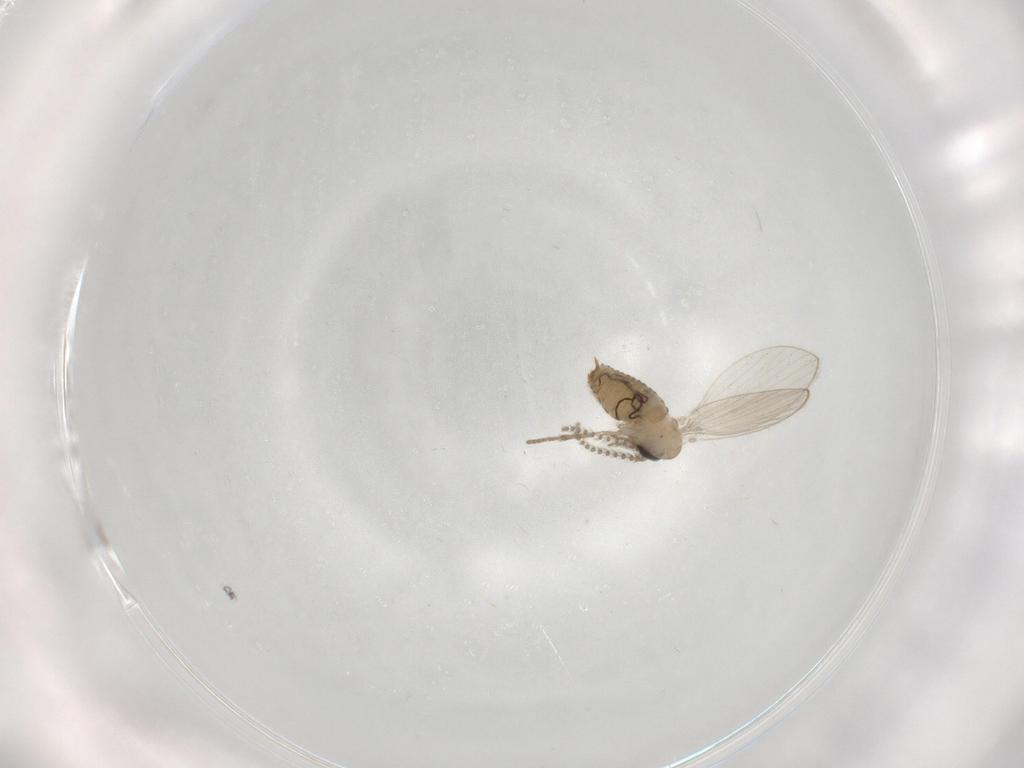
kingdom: Animalia
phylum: Arthropoda
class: Insecta
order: Diptera
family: Psychodidae
